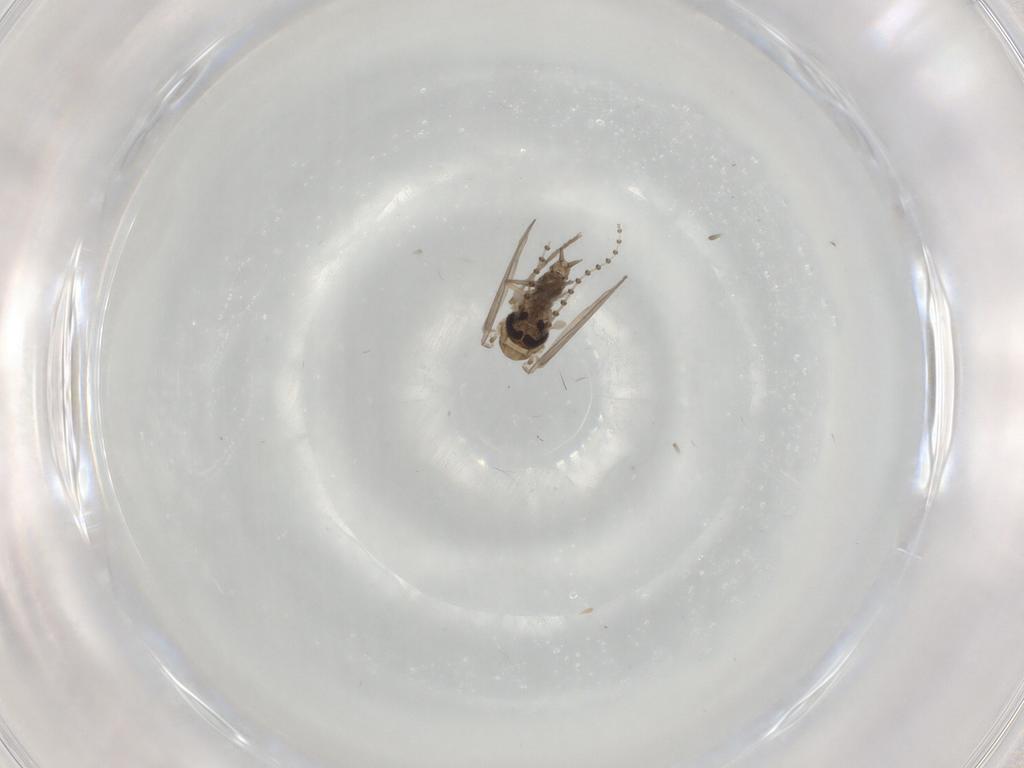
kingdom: Animalia
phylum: Arthropoda
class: Insecta
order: Diptera
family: Psychodidae
